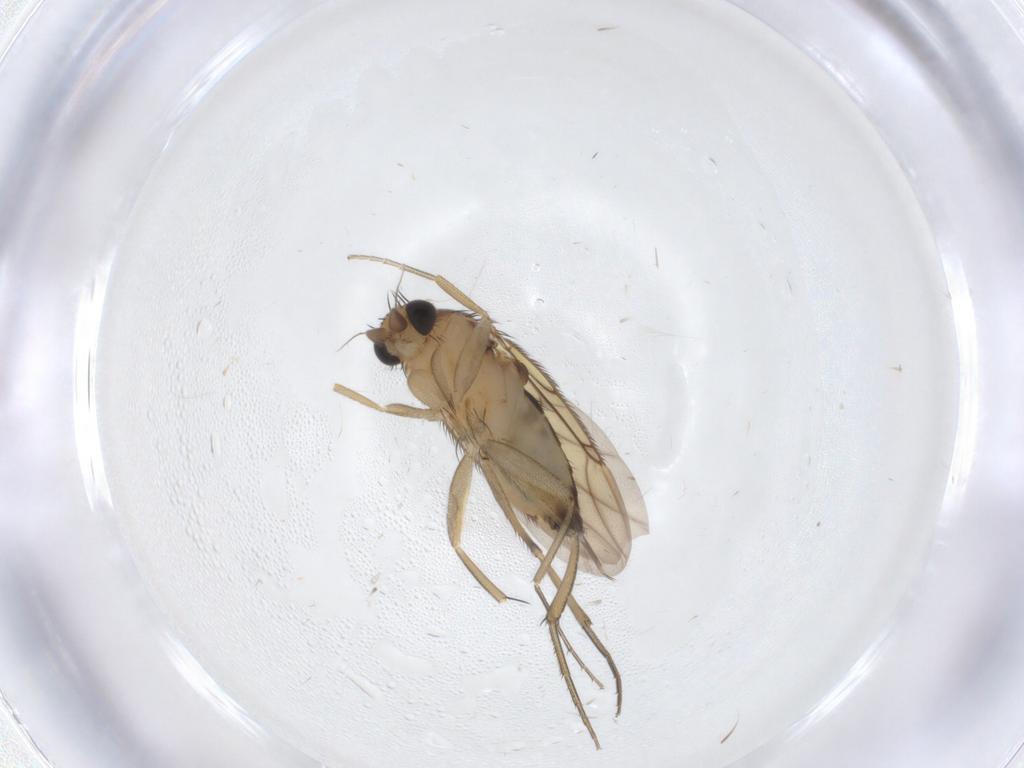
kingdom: Animalia
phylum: Arthropoda
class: Insecta
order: Diptera
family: Phoridae
